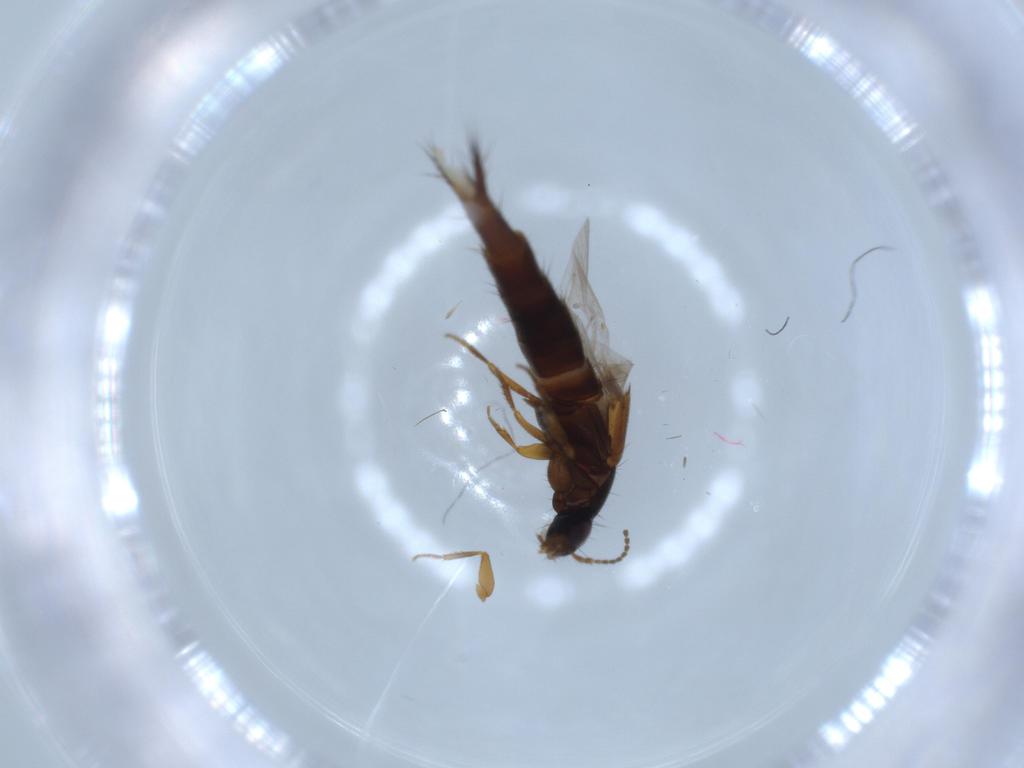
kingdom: Animalia
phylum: Arthropoda
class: Insecta
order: Coleoptera
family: Staphylinidae
